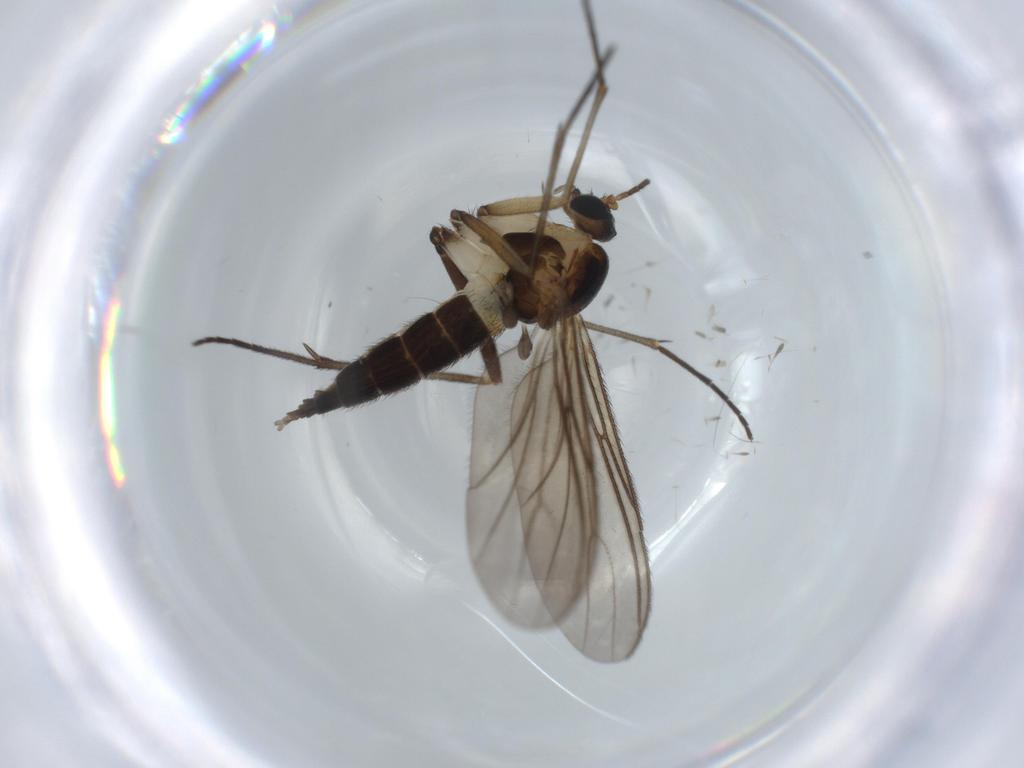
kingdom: Animalia
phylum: Arthropoda
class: Insecta
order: Diptera
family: Sciaridae
